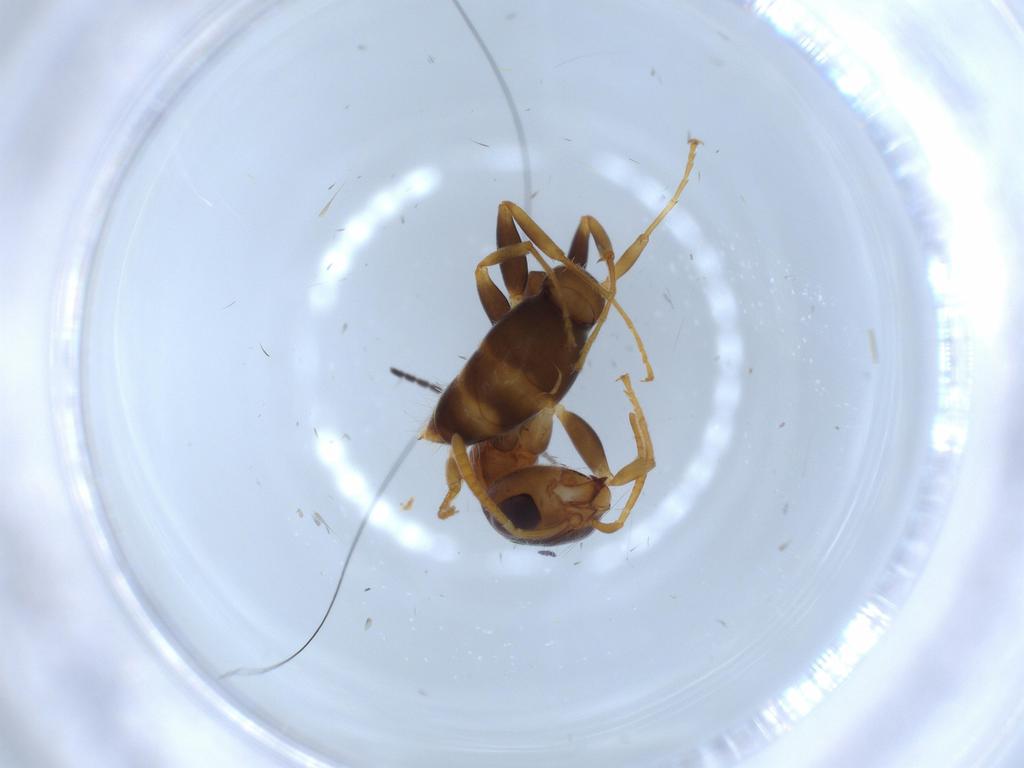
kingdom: Animalia
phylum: Arthropoda
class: Insecta
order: Hymenoptera
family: Formicidae
